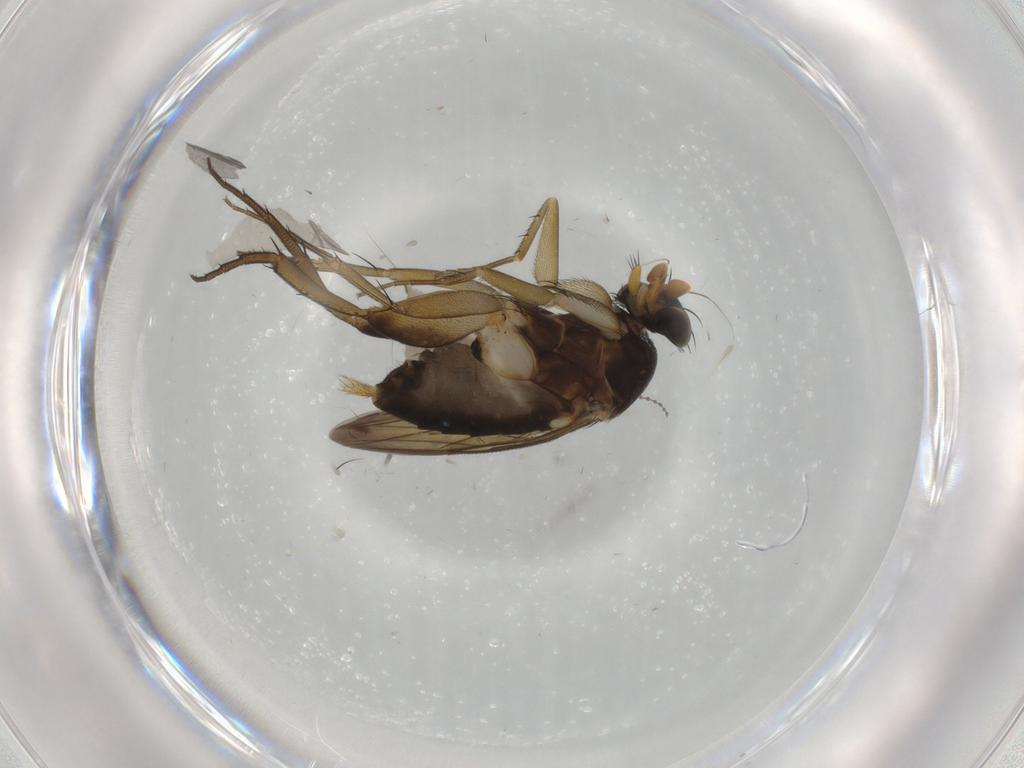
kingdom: Animalia
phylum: Arthropoda
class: Insecta
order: Diptera
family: Phoridae
